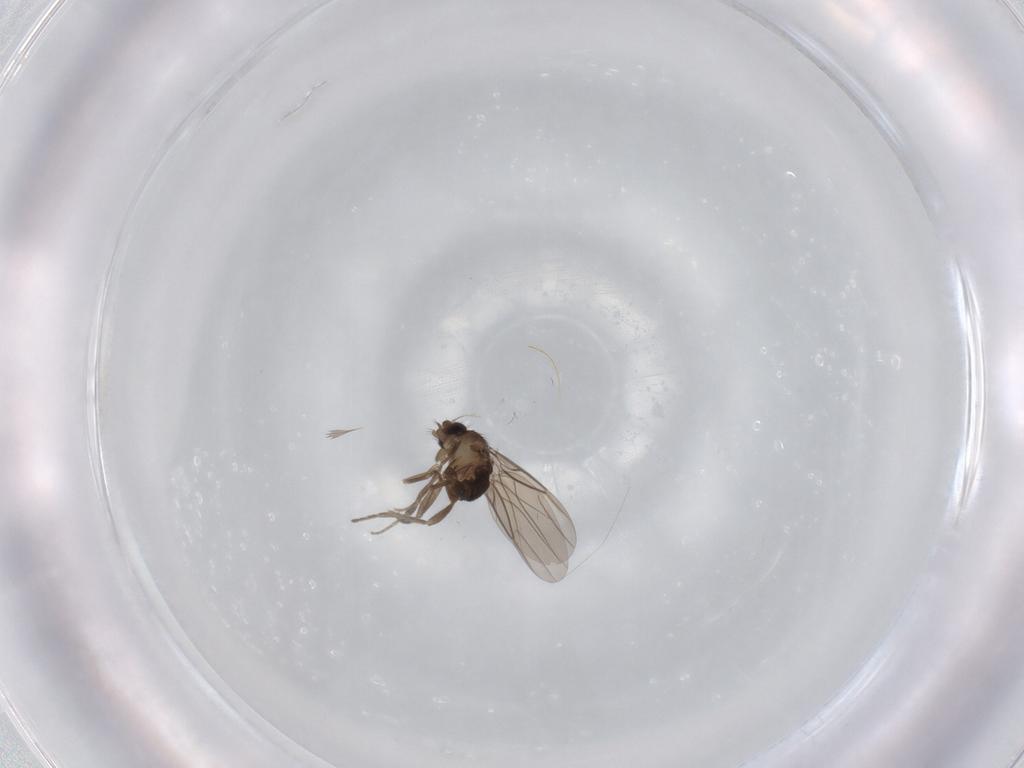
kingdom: Animalia
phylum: Arthropoda
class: Insecta
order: Diptera
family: Phoridae
